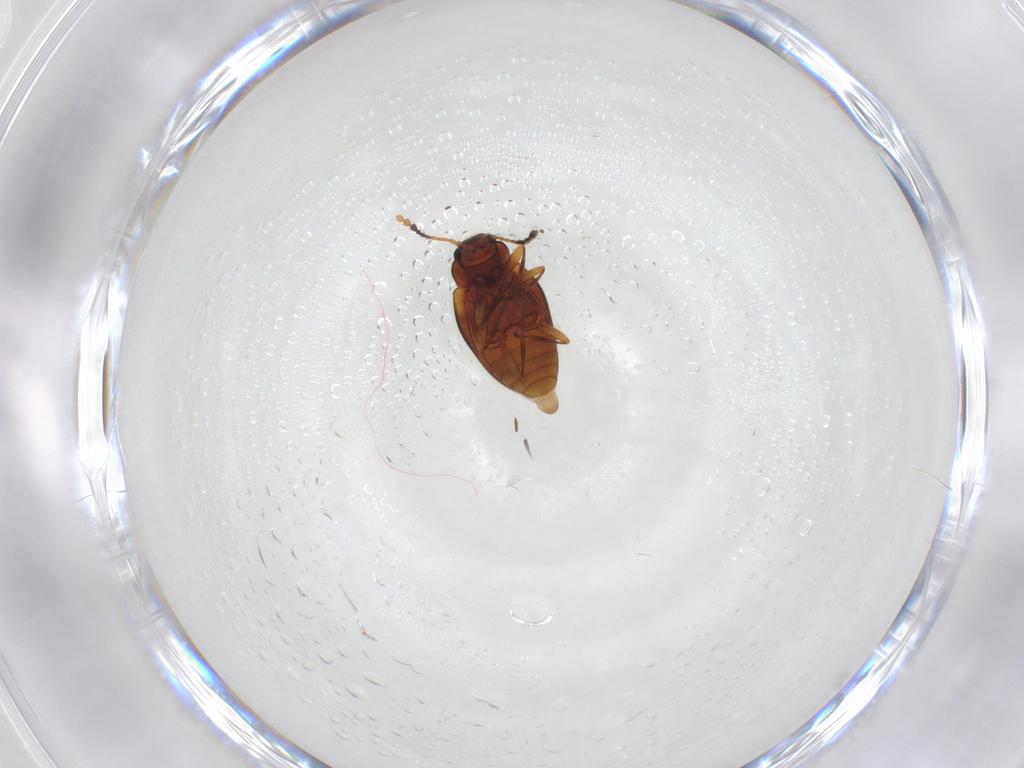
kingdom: Animalia
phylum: Arthropoda
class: Insecta
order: Coleoptera
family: Erotylidae
